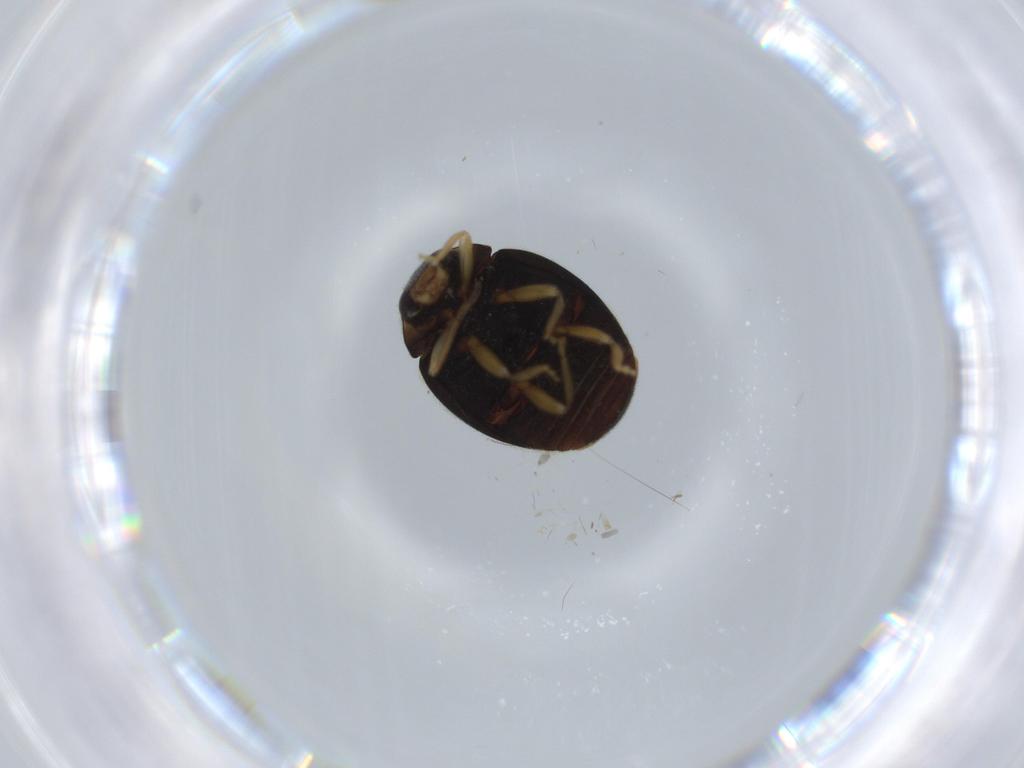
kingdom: Animalia
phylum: Arthropoda
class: Insecta
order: Coleoptera
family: Coccinellidae
